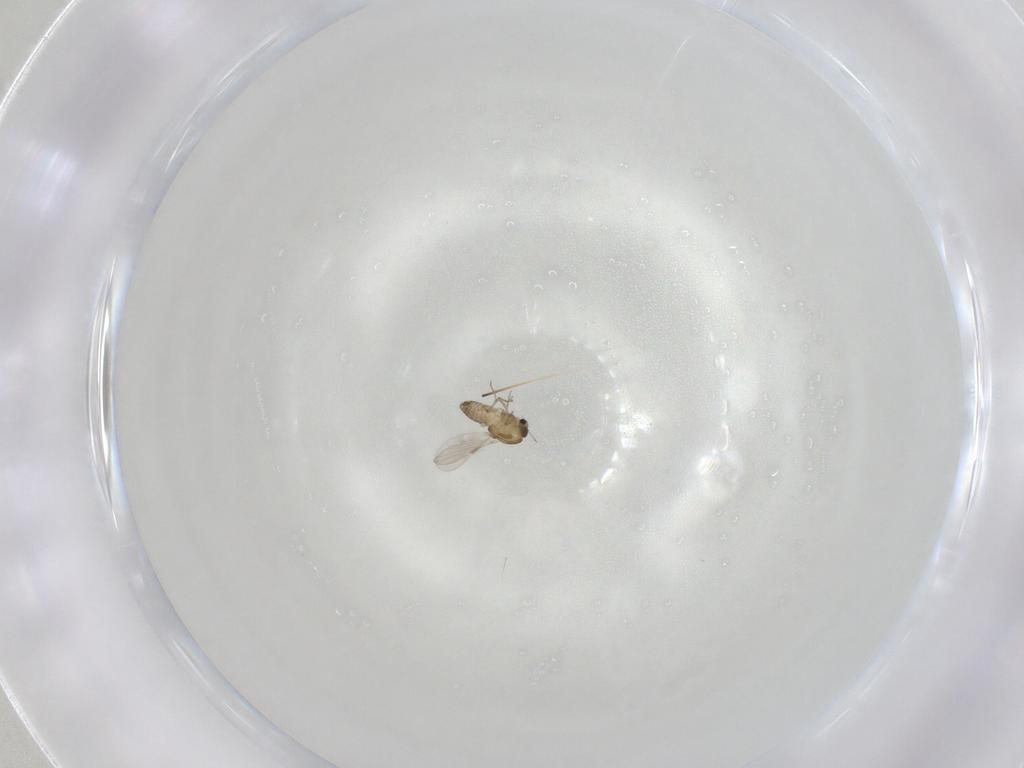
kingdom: Animalia
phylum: Arthropoda
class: Insecta
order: Diptera
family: Chironomidae
